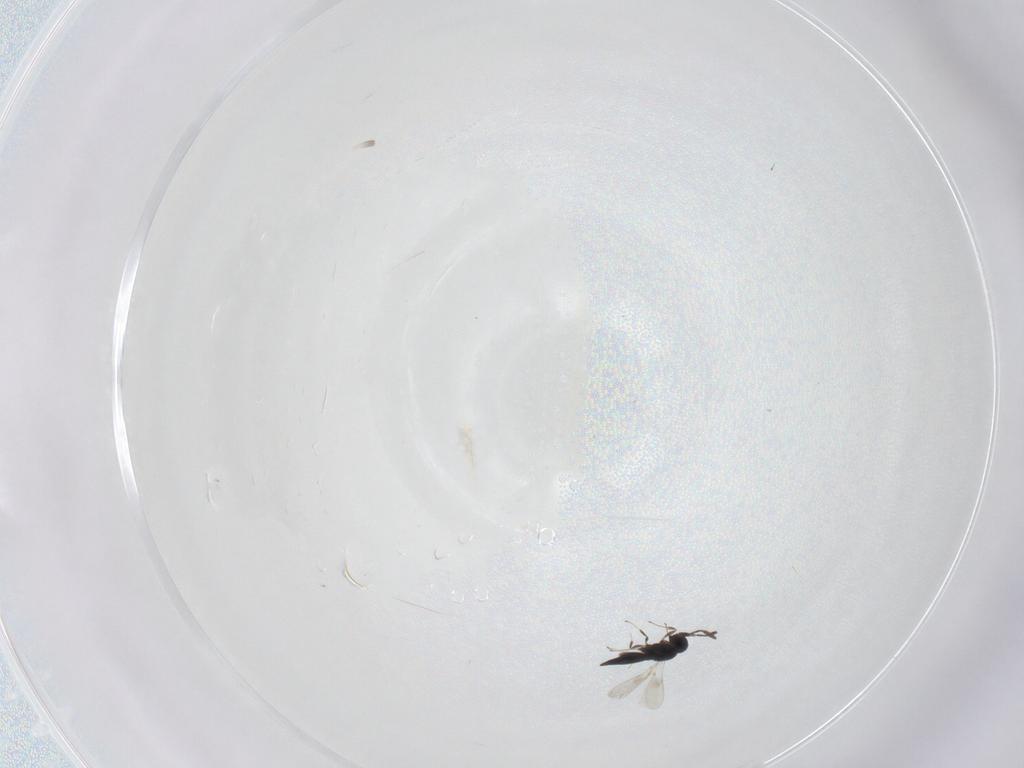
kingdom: Animalia
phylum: Arthropoda
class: Insecta
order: Hymenoptera
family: Scelionidae
